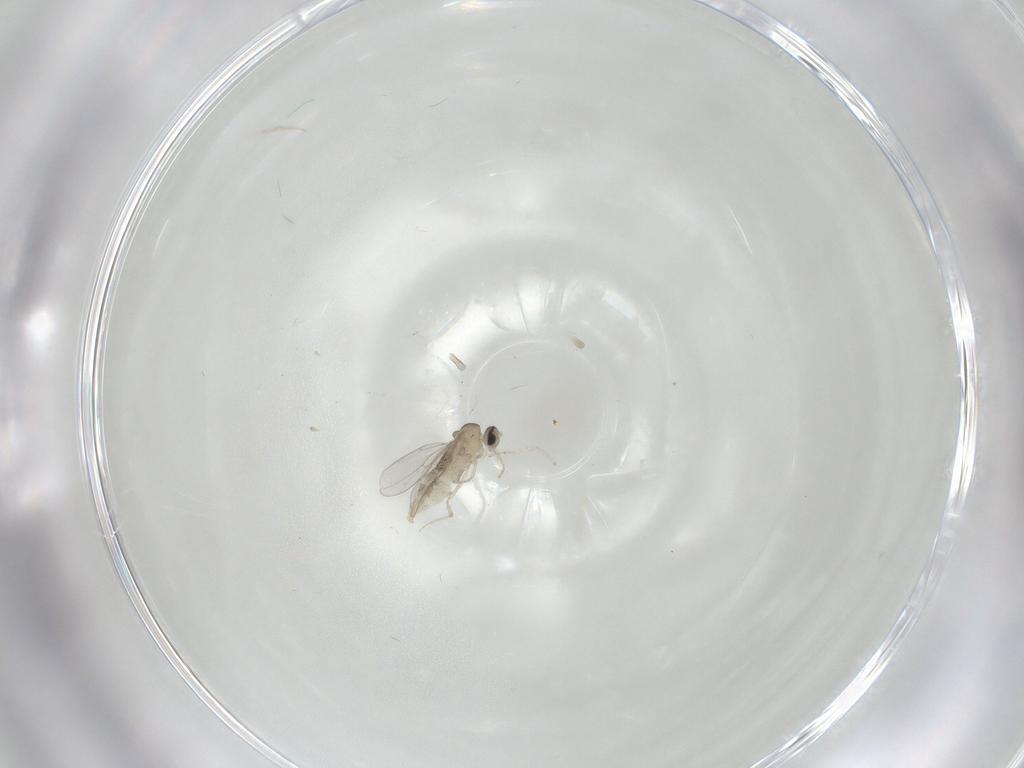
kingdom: Animalia
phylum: Arthropoda
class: Insecta
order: Diptera
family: Cecidomyiidae
